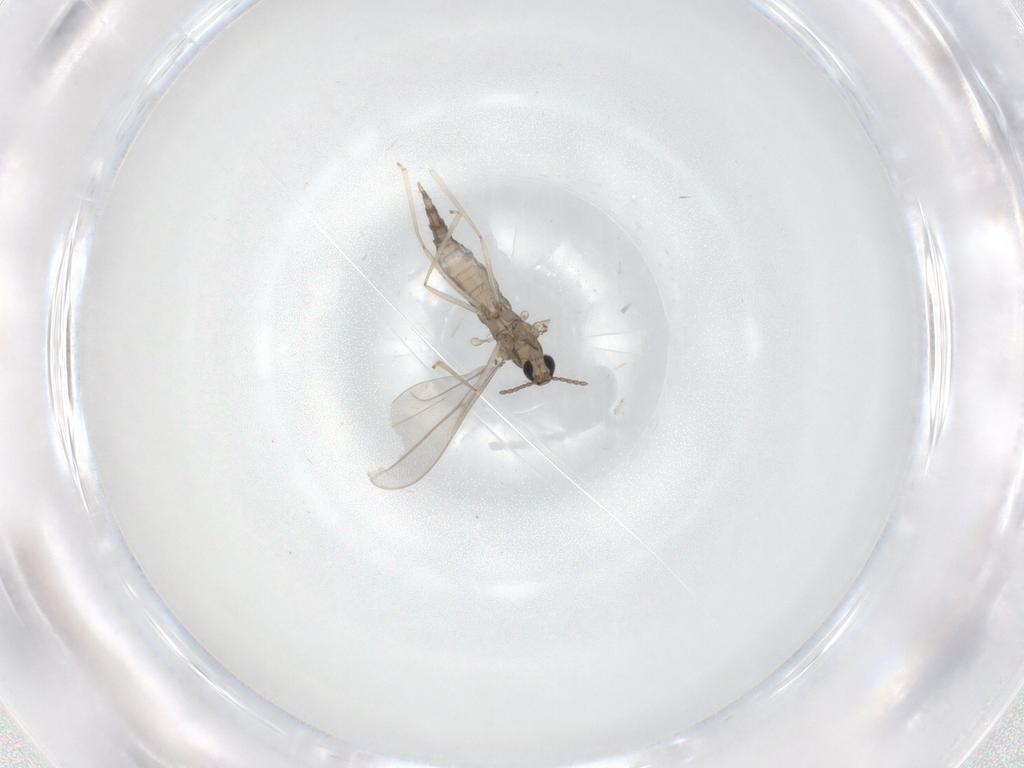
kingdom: Animalia
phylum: Arthropoda
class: Insecta
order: Diptera
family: Cecidomyiidae
